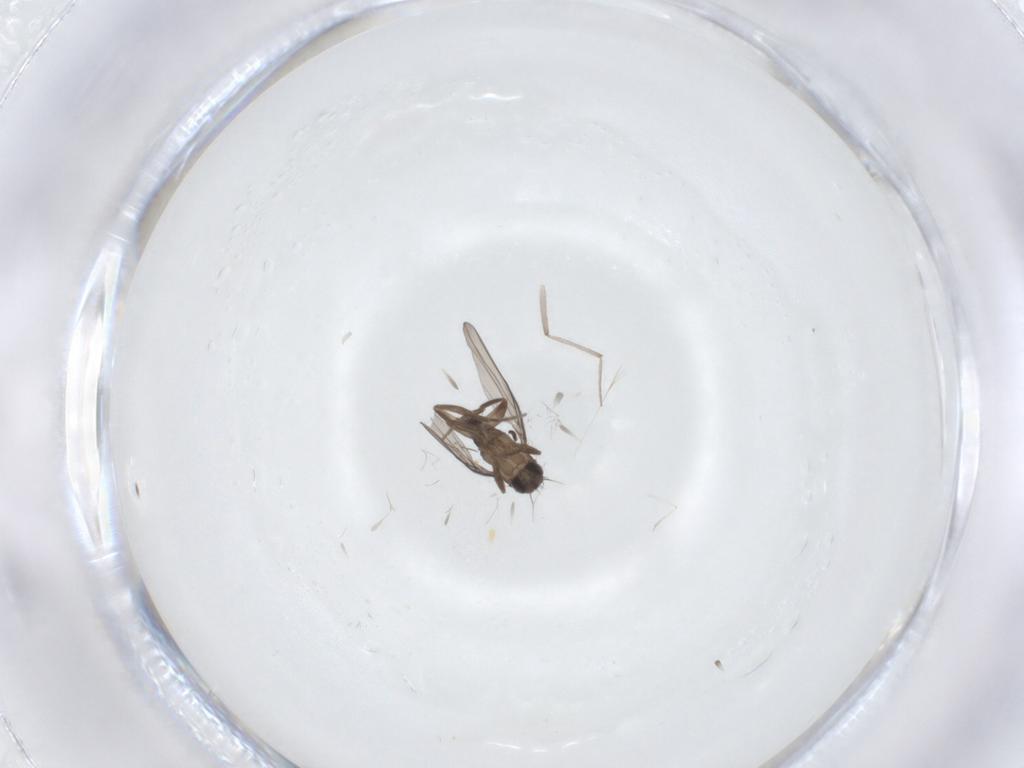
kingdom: Animalia
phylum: Arthropoda
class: Insecta
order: Diptera
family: Chironomidae
